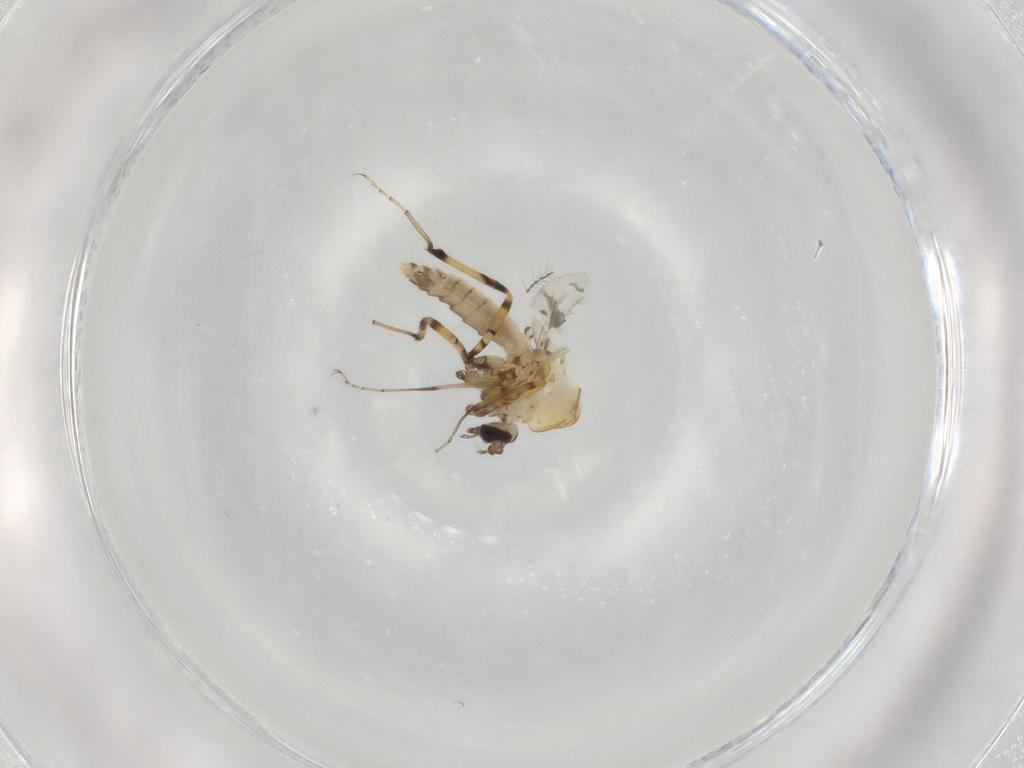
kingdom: Animalia
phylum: Arthropoda
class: Insecta
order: Diptera
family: Ceratopogonidae
